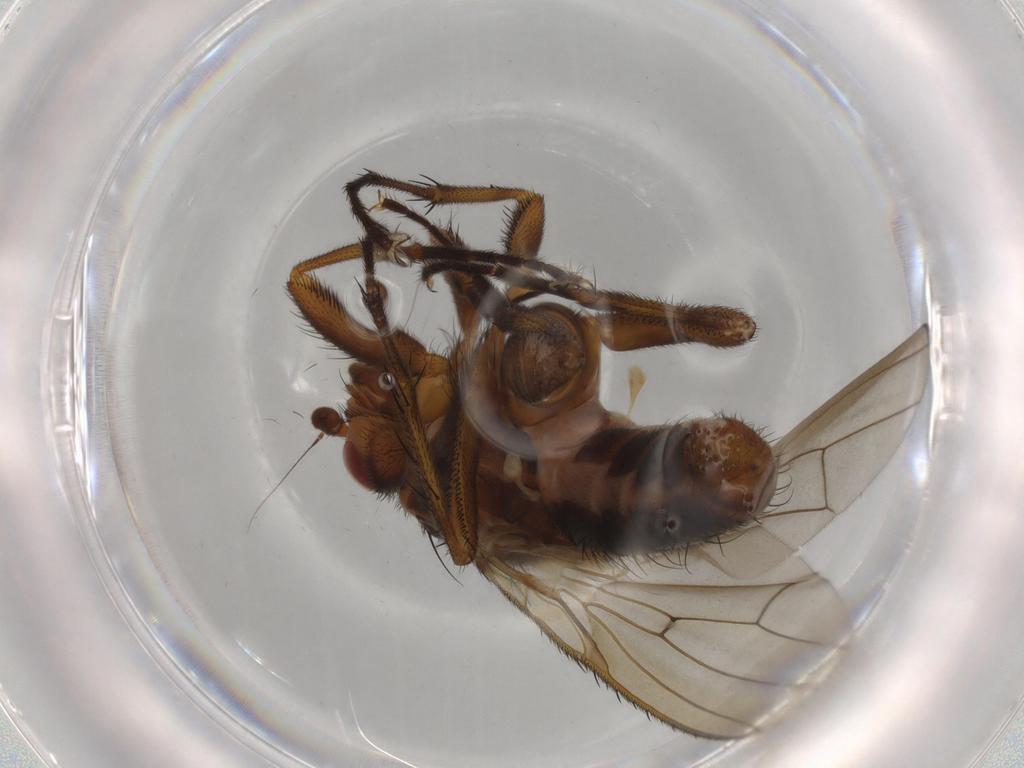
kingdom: Animalia
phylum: Arthropoda
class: Insecta
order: Diptera
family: Heleomyzidae
